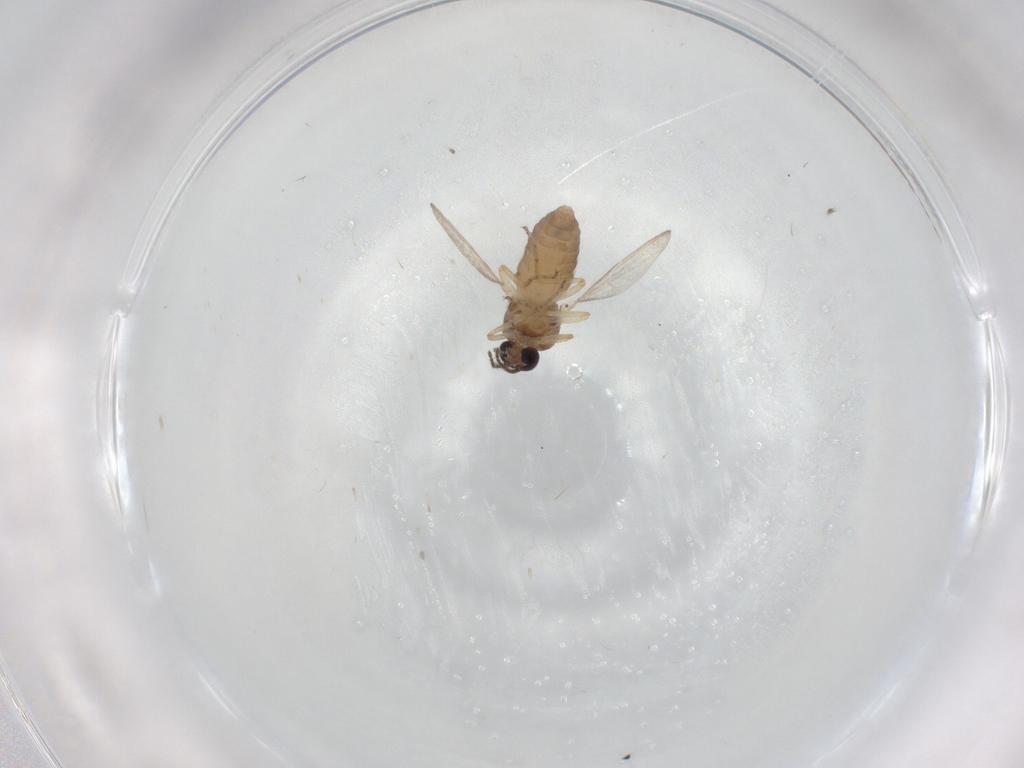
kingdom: Animalia
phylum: Arthropoda
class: Insecta
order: Diptera
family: Ceratopogonidae
